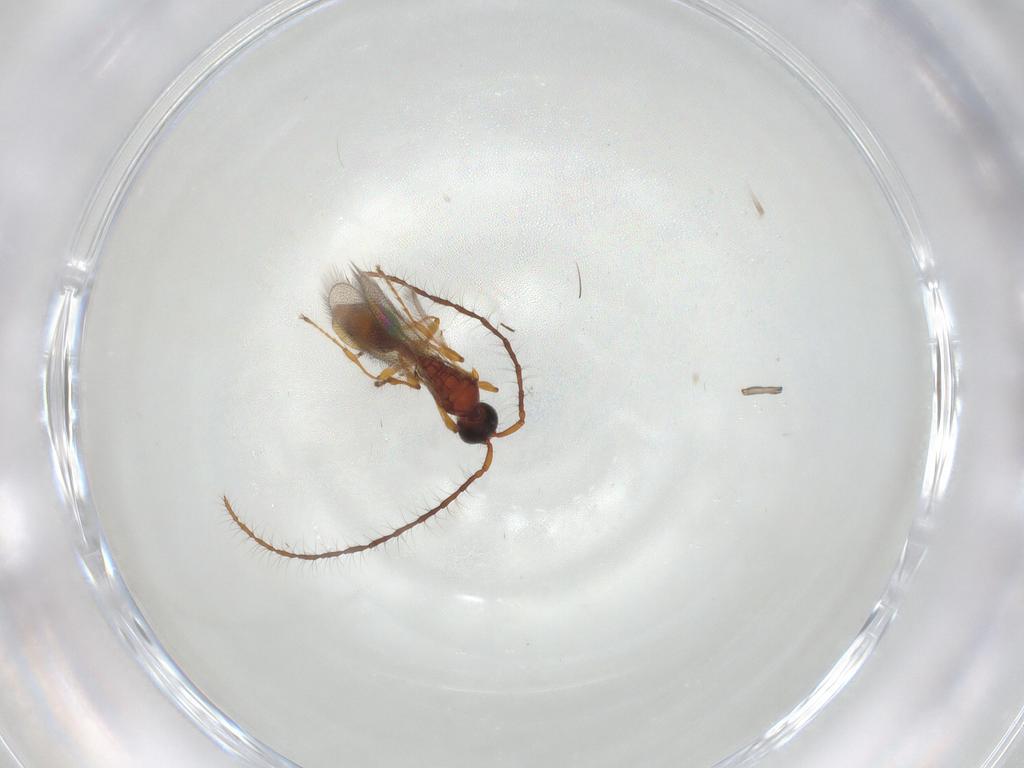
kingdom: Animalia
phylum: Arthropoda
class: Insecta
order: Hymenoptera
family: Diapriidae
